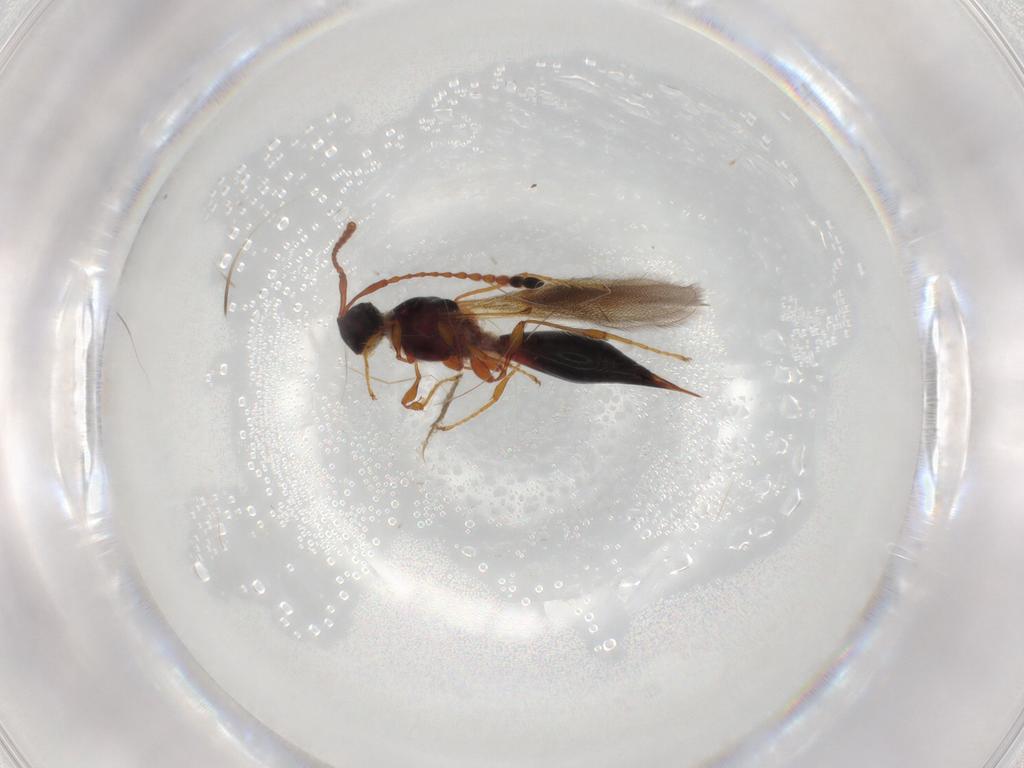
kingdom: Animalia
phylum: Arthropoda
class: Insecta
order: Hymenoptera
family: Diapriidae
